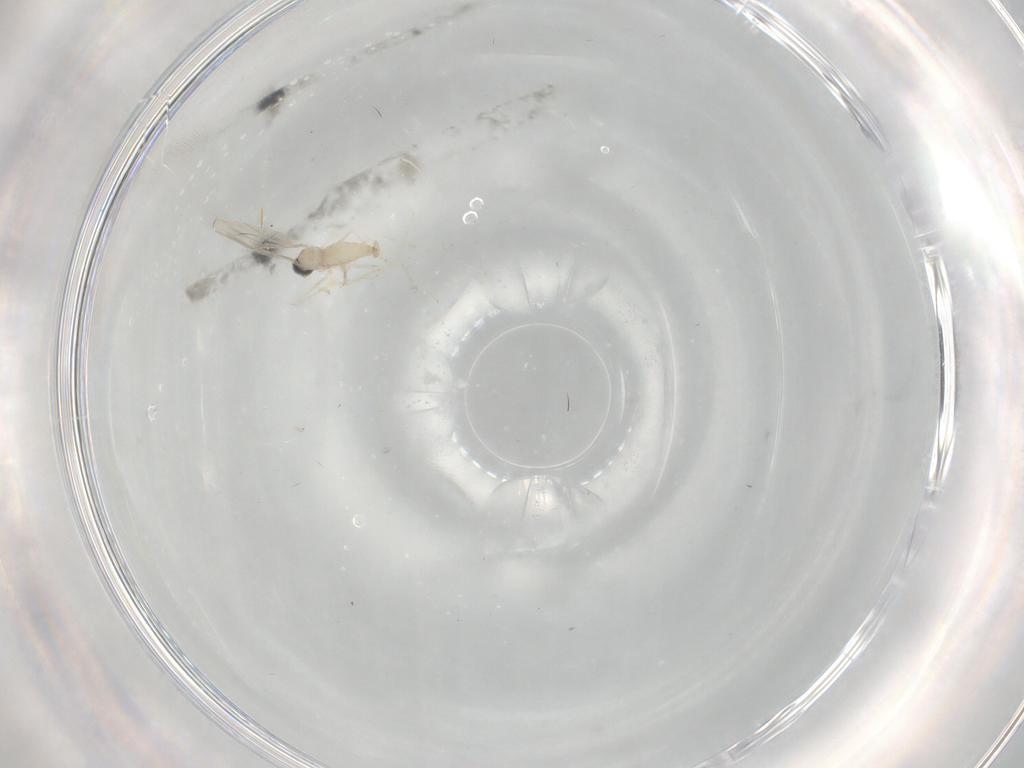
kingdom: Animalia
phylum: Arthropoda
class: Insecta
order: Diptera
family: Cecidomyiidae
